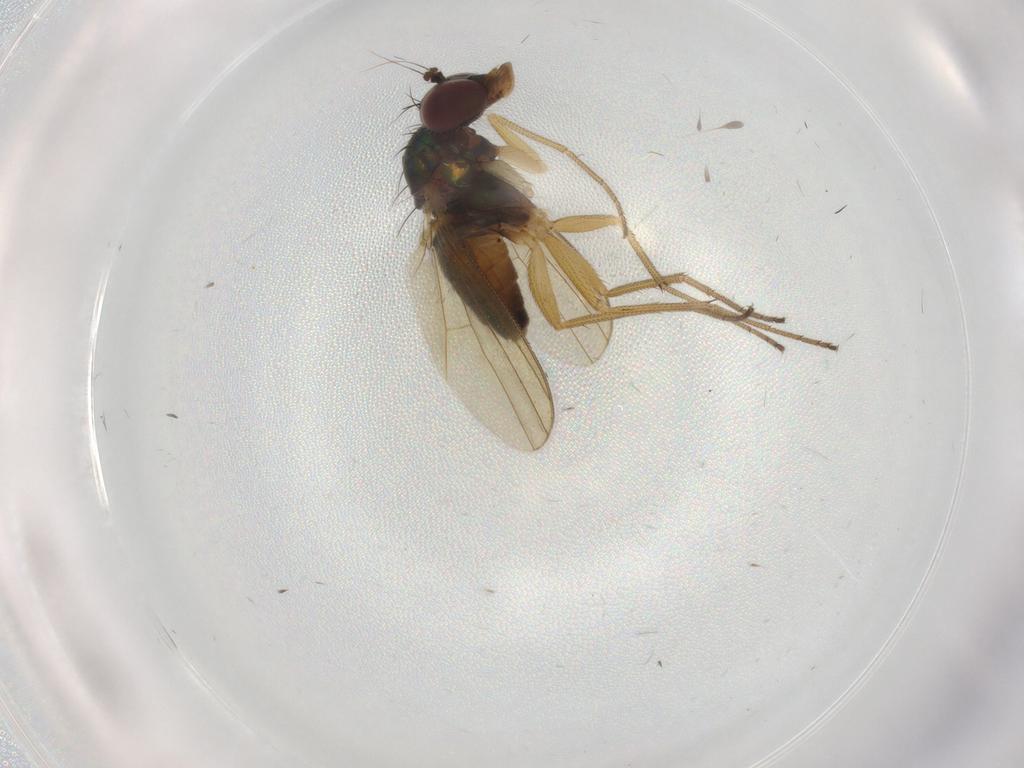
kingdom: Animalia
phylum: Arthropoda
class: Insecta
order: Diptera
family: Dolichopodidae
